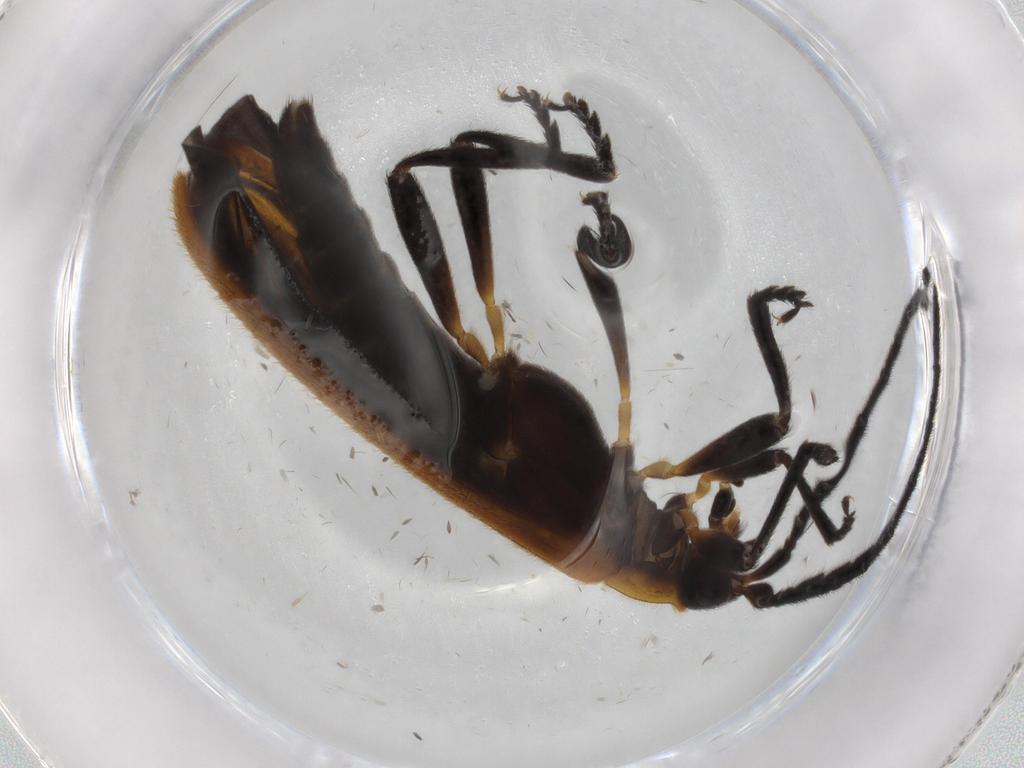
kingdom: Animalia
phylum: Arthropoda
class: Insecta
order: Coleoptera
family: Lycidae
